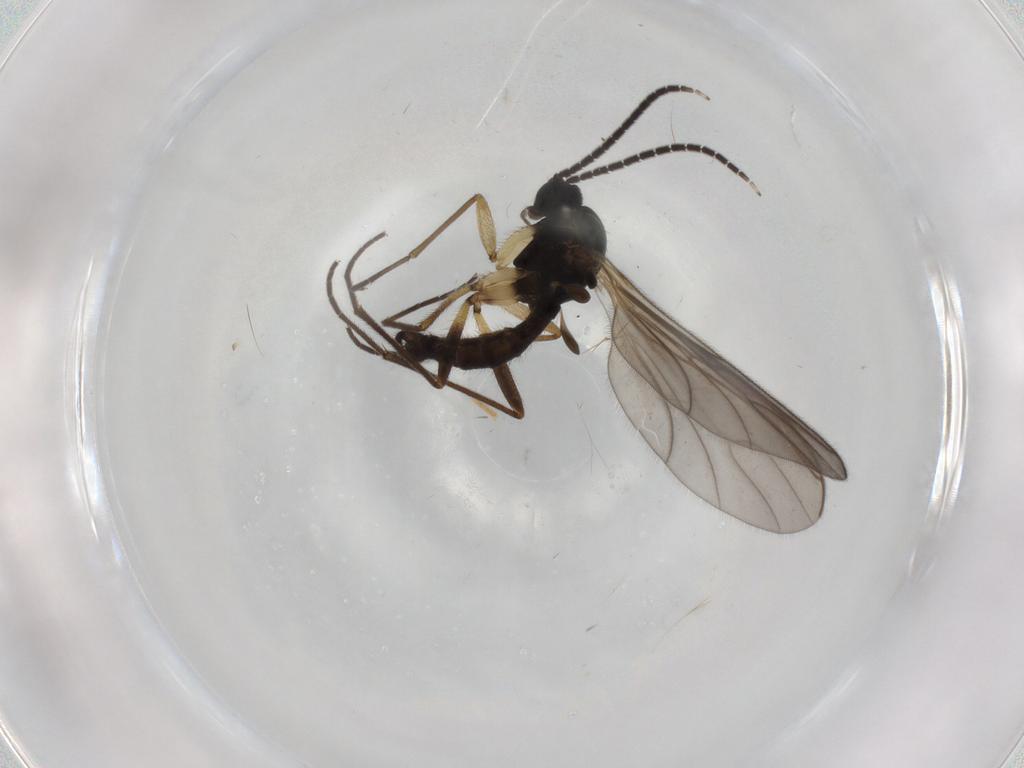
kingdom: Animalia
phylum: Arthropoda
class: Insecta
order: Diptera
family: Sciaridae
